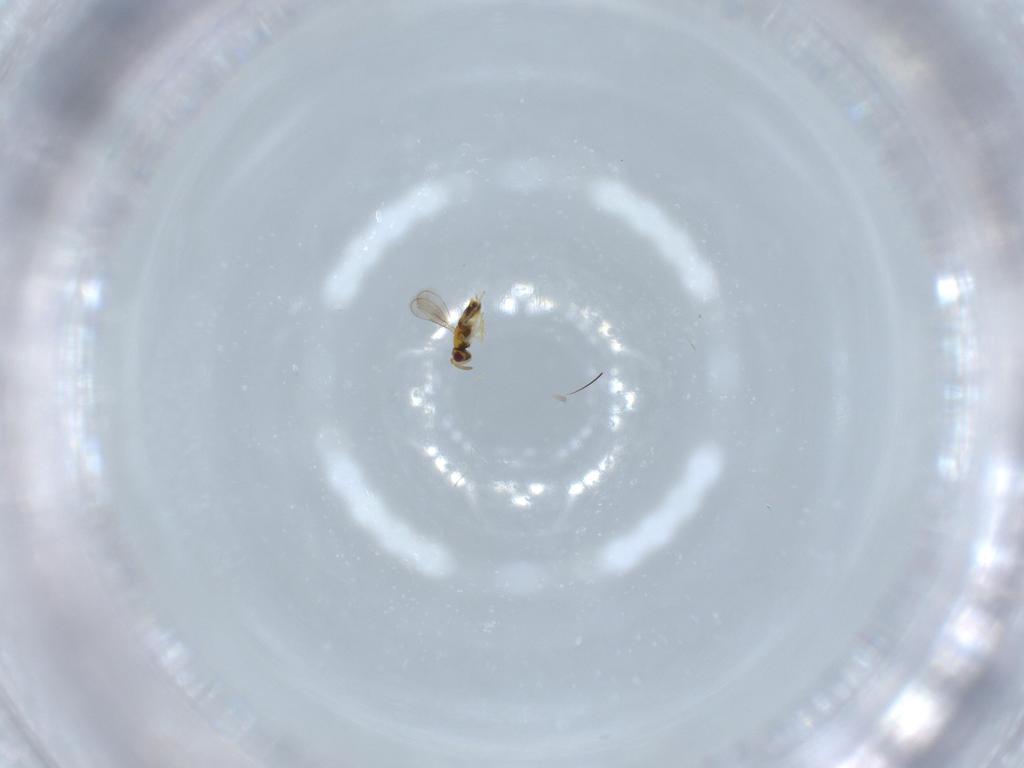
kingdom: Animalia
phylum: Arthropoda
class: Insecta
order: Hymenoptera
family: Aphelinidae
